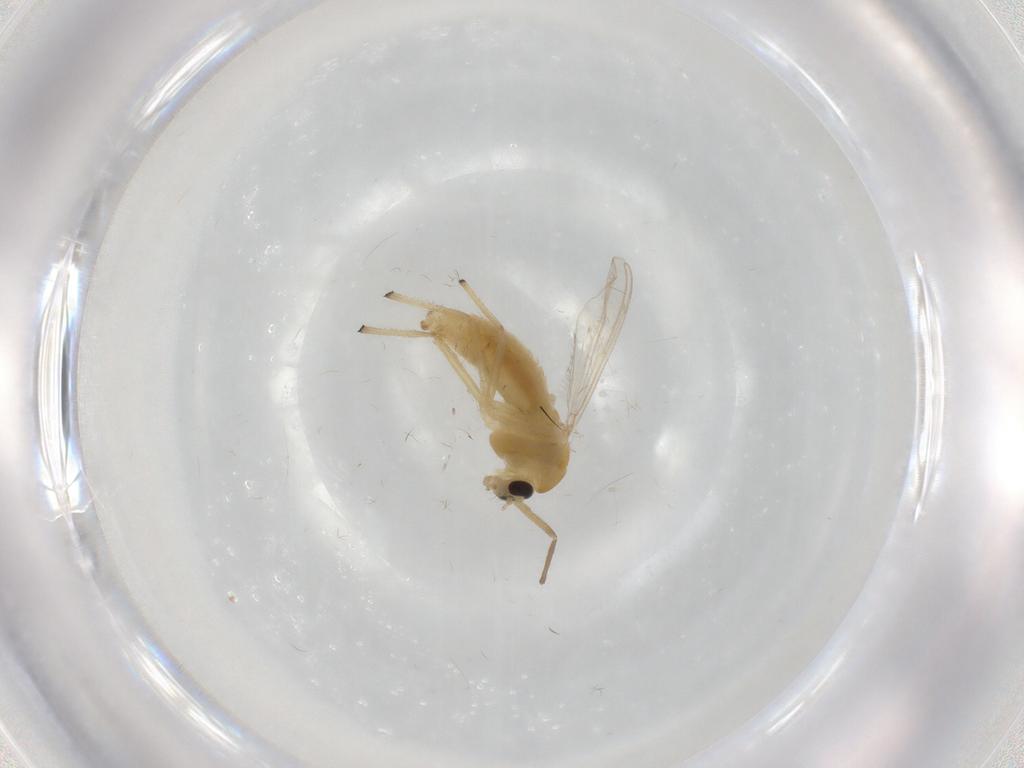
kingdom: Animalia
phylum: Arthropoda
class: Insecta
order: Diptera
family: Chironomidae
